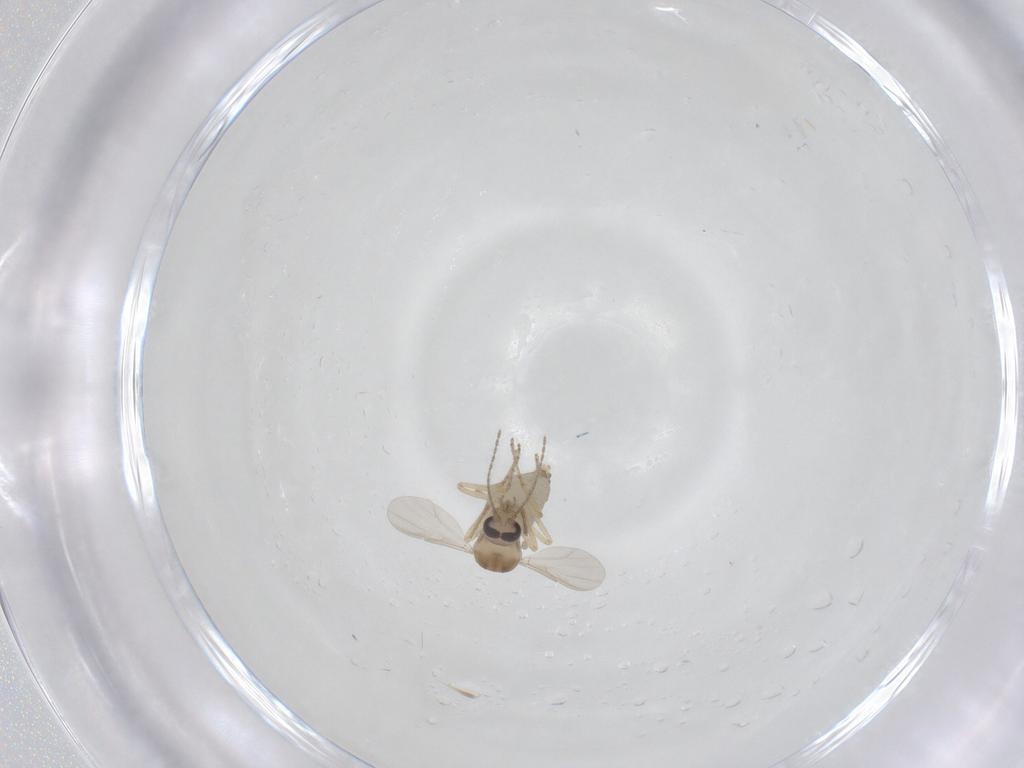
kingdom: Animalia
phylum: Arthropoda
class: Insecta
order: Diptera
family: Ceratopogonidae
